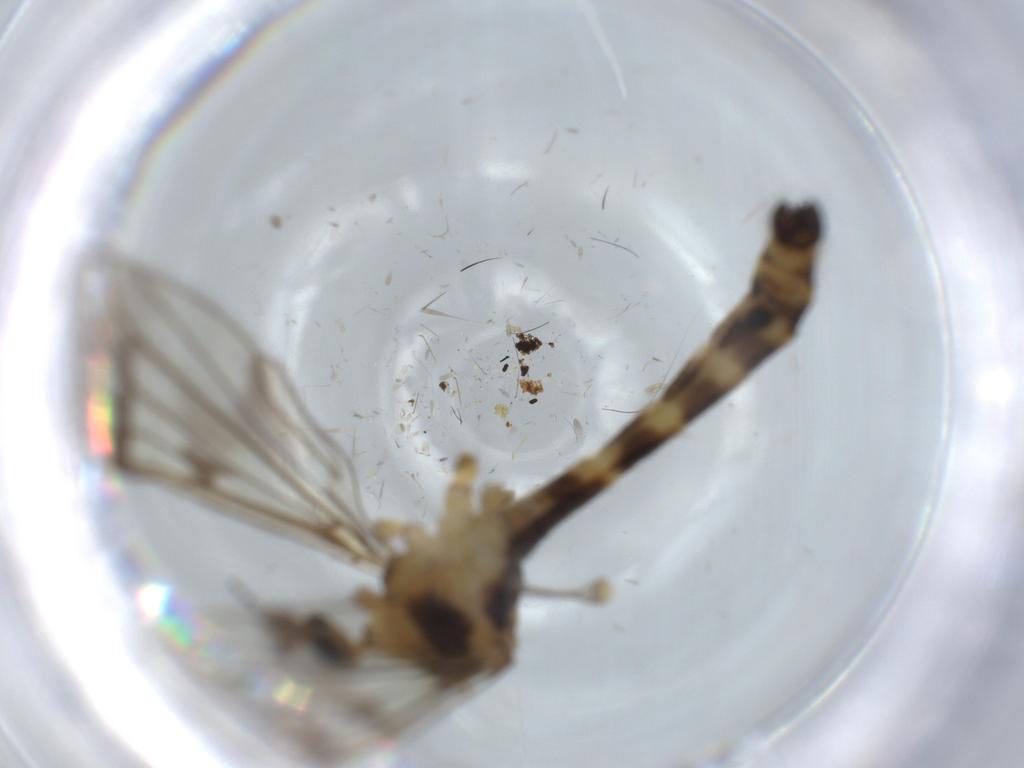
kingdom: Animalia
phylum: Arthropoda
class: Insecta
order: Diptera
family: Limoniidae
